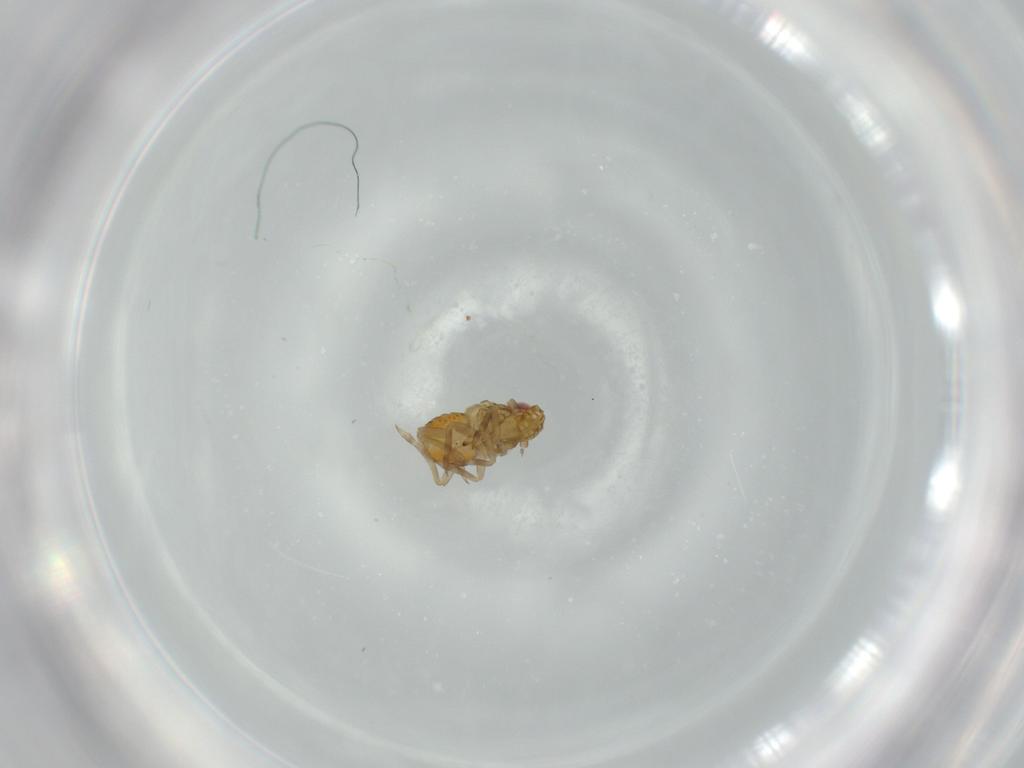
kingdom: Animalia
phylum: Arthropoda
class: Insecta
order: Hemiptera
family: Delphacidae
